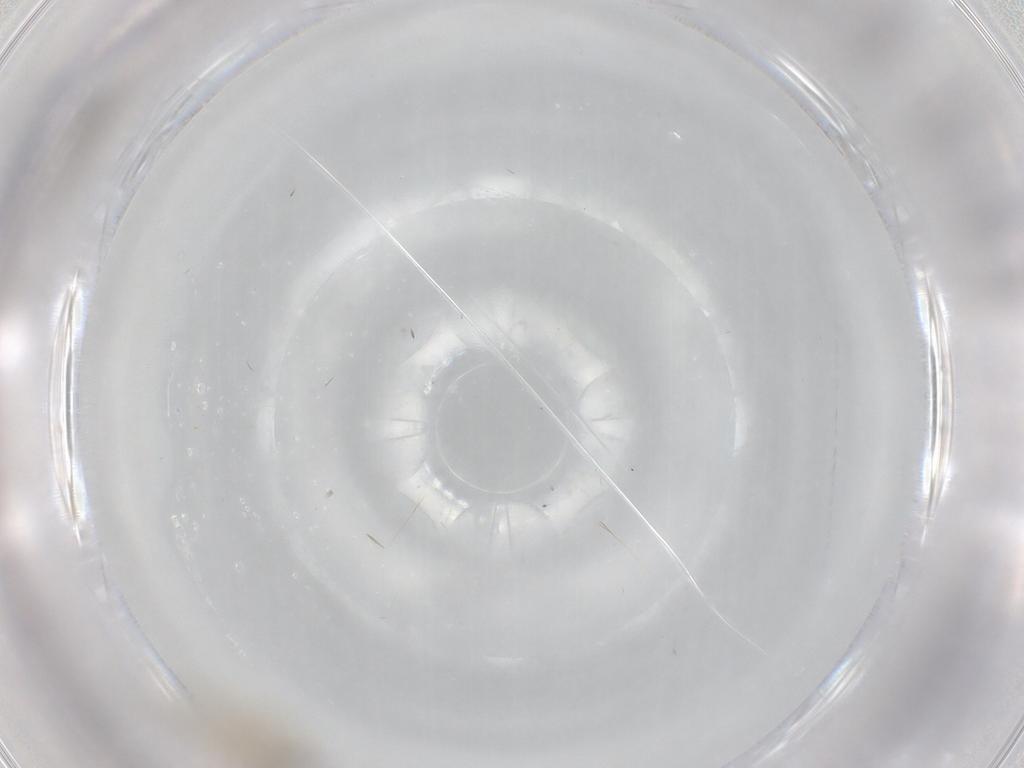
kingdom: Animalia
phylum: Arthropoda
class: Insecta
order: Diptera
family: Cecidomyiidae
